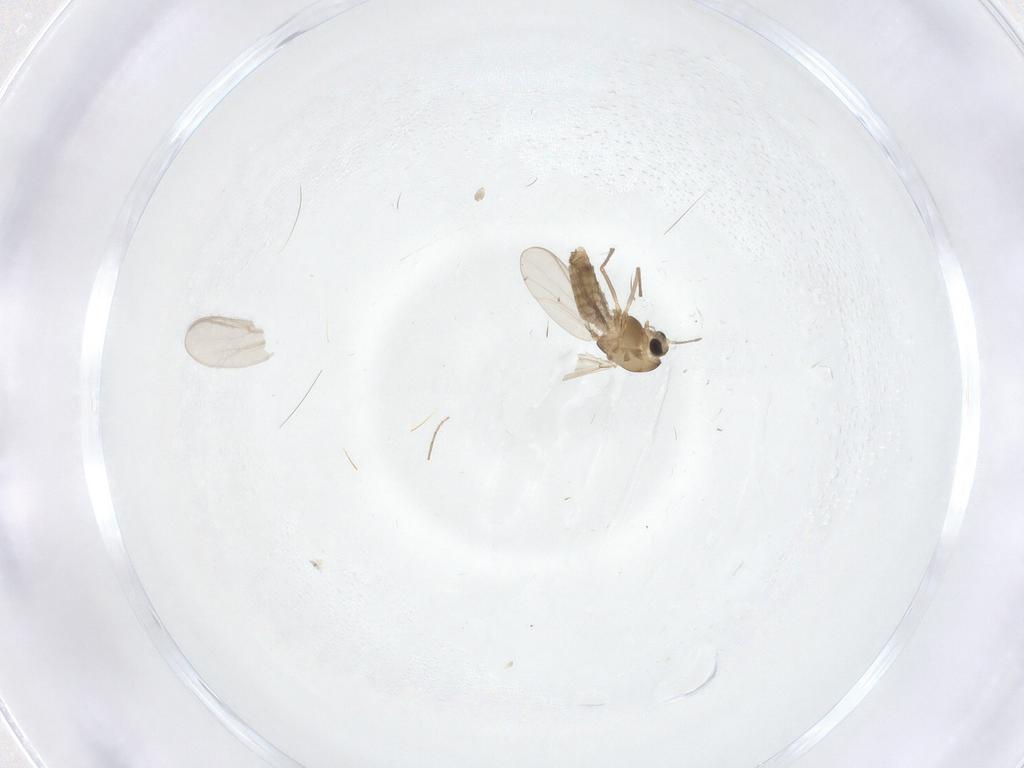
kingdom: Animalia
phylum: Arthropoda
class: Insecta
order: Diptera
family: Chironomidae
